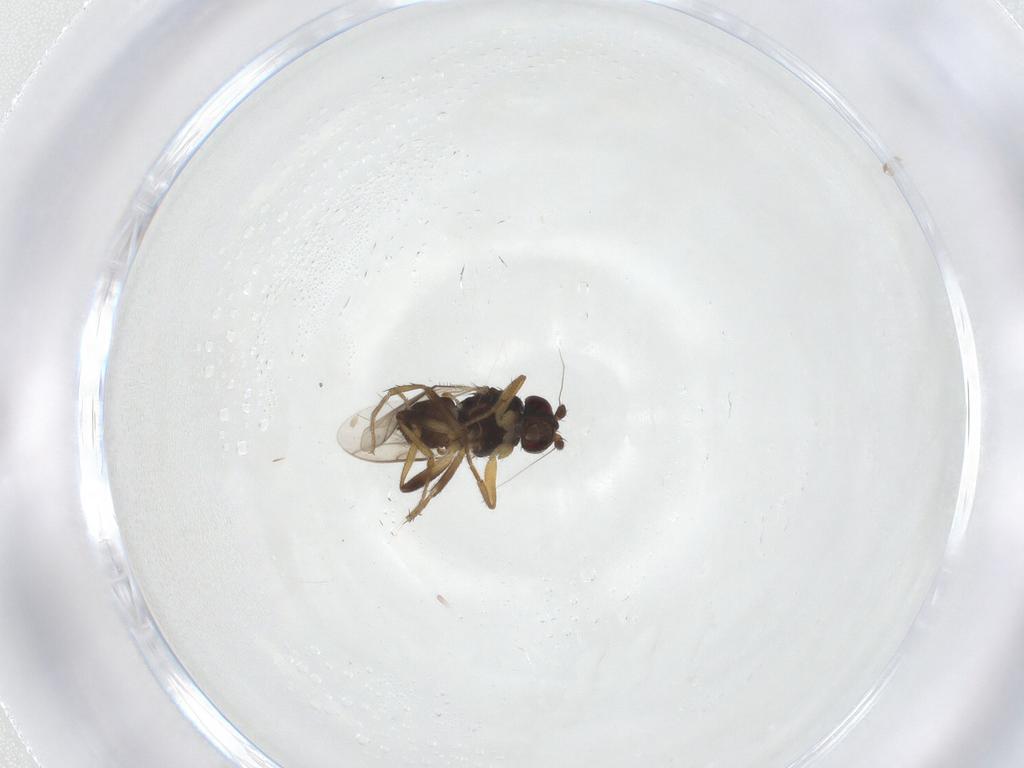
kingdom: Animalia
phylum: Arthropoda
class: Insecta
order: Diptera
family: Sphaeroceridae
